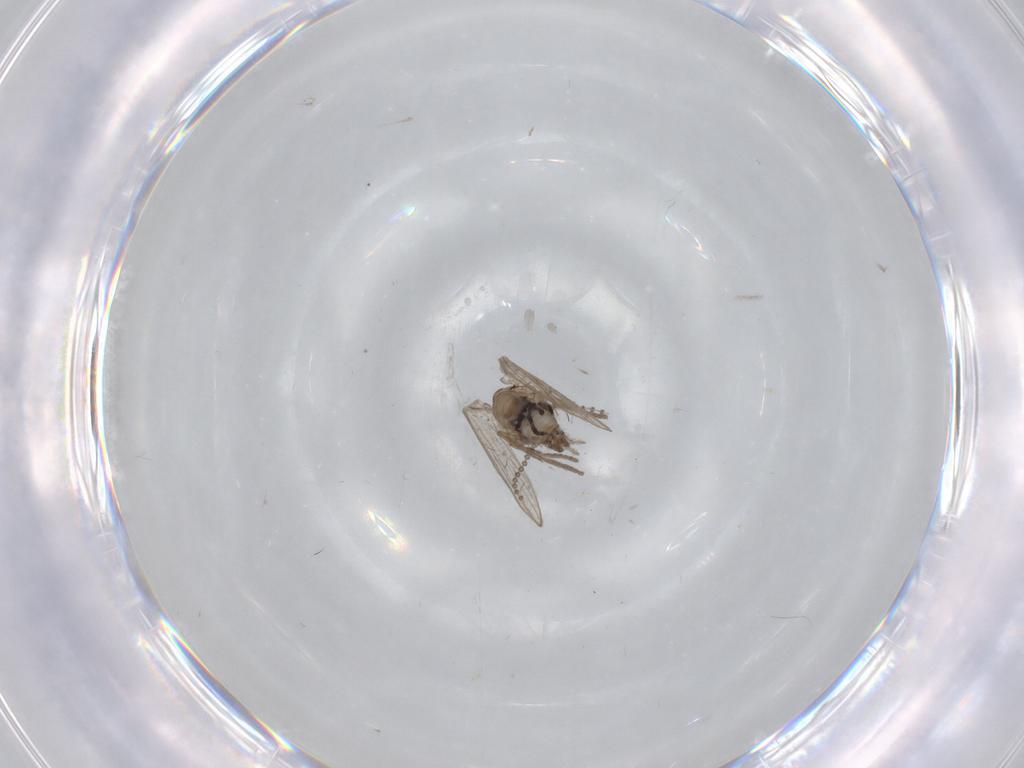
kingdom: Animalia
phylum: Arthropoda
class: Insecta
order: Diptera
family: Psychodidae
